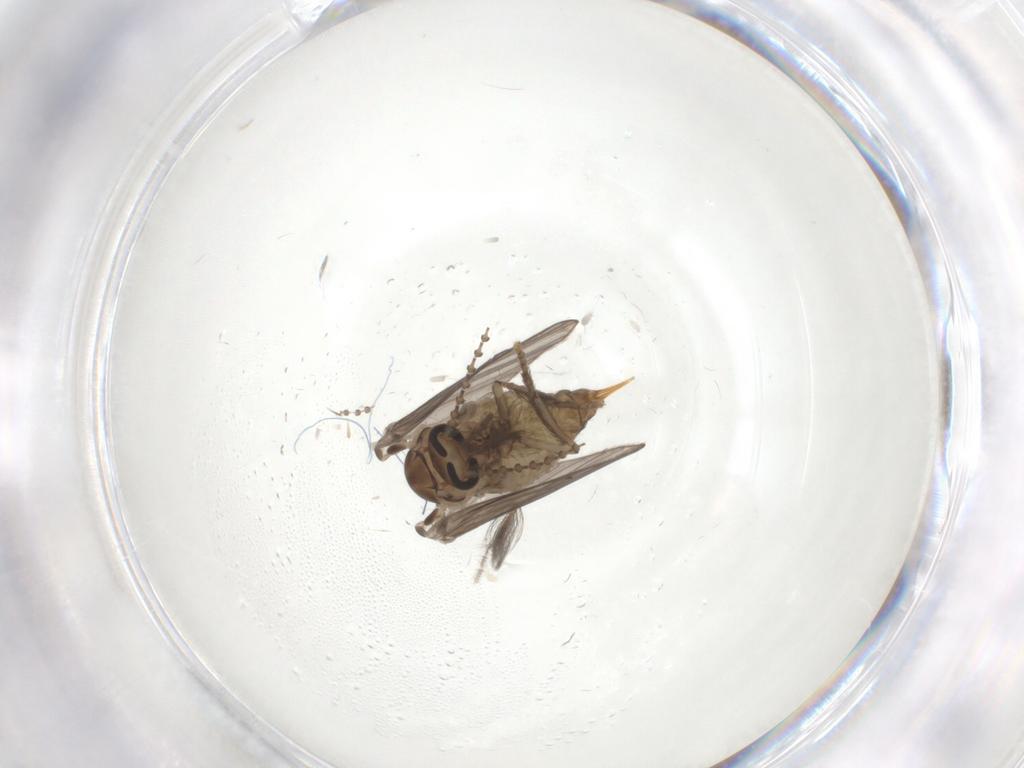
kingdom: Animalia
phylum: Arthropoda
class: Insecta
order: Diptera
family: Psychodidae
